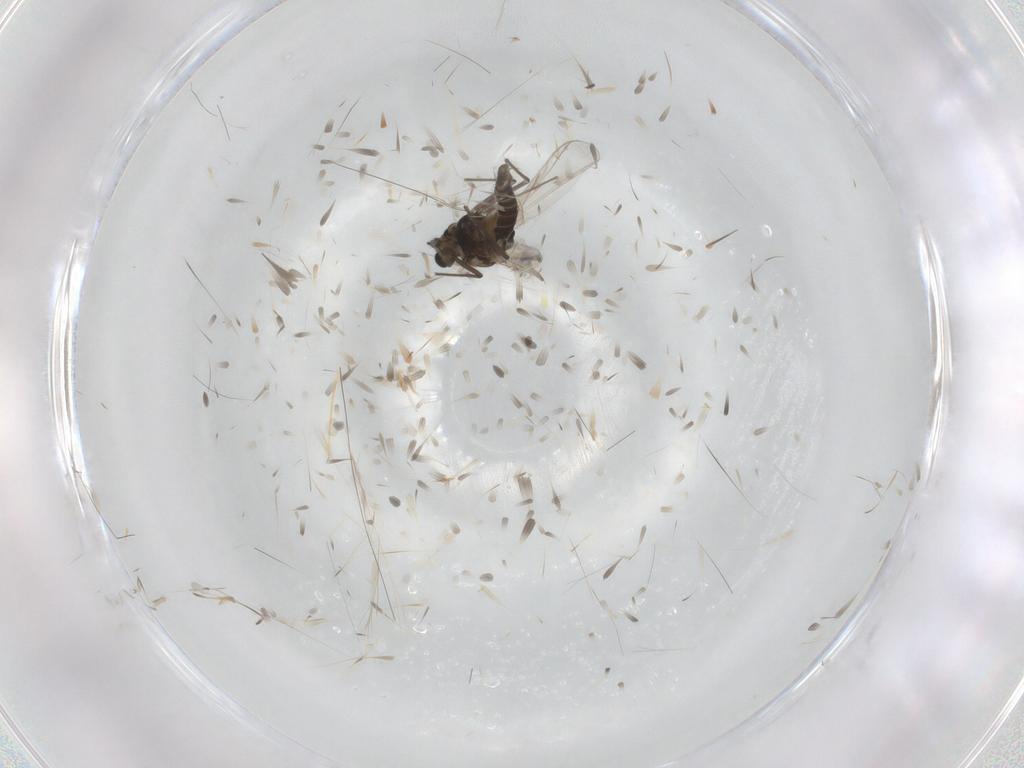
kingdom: Animalia
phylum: Arthropoda
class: Insecta
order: Diptera
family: Chironomidae
